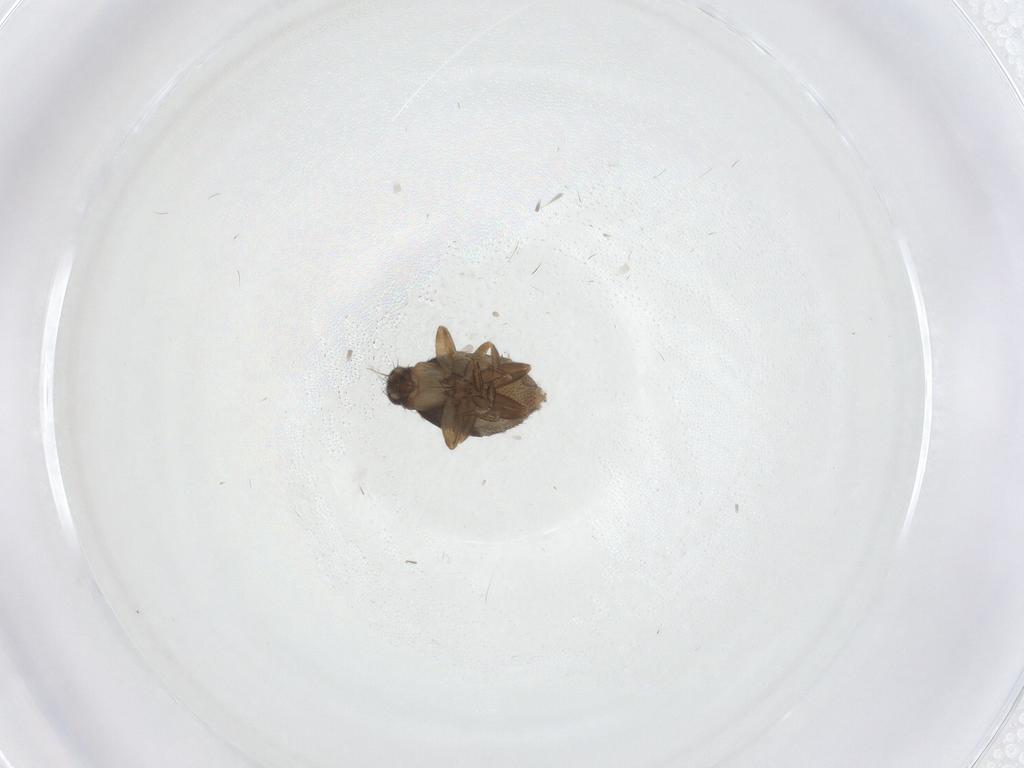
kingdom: Animalia
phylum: Arthropoda
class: Insecta
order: Diptera
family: Phoridae
